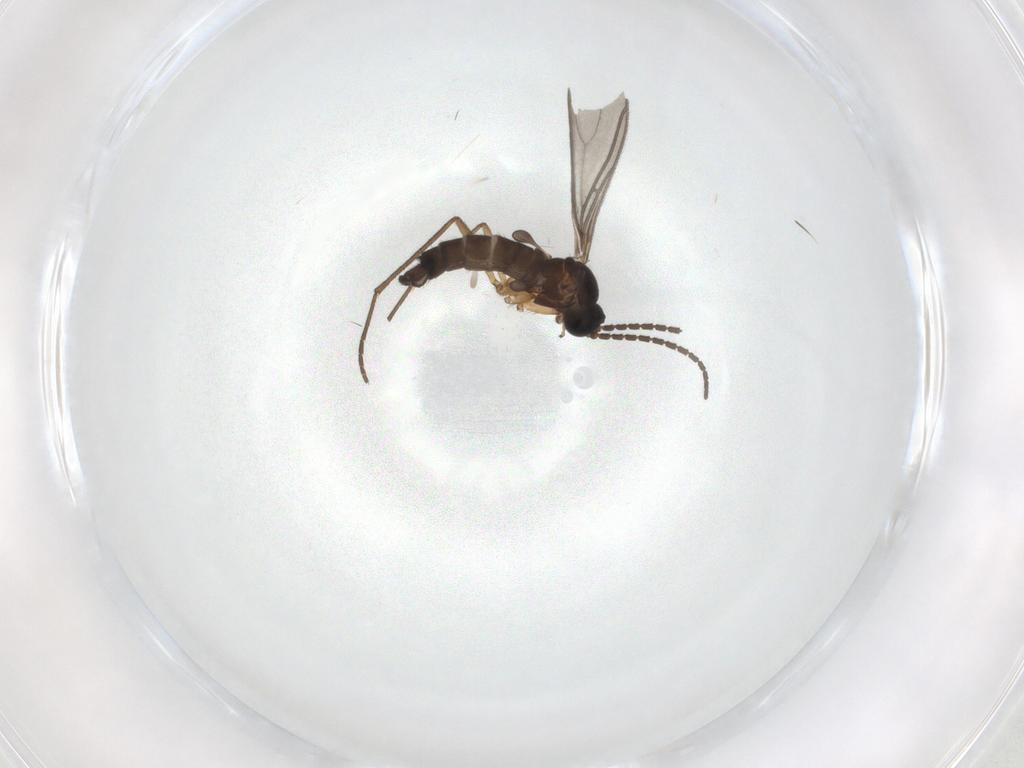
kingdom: Animalia
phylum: Arthropoda
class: Insecta
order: Diptera
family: Sciaridae
